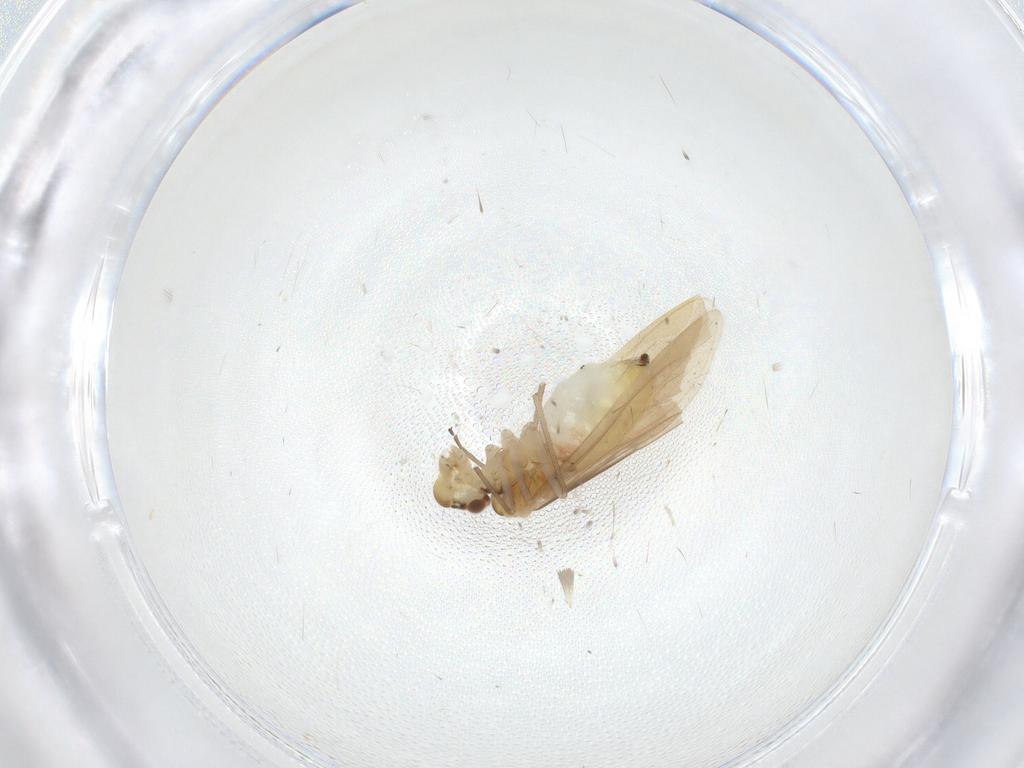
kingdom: Animalia
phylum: Arthropoda
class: Insecta
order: Psocodea
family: Caeciliusidae
